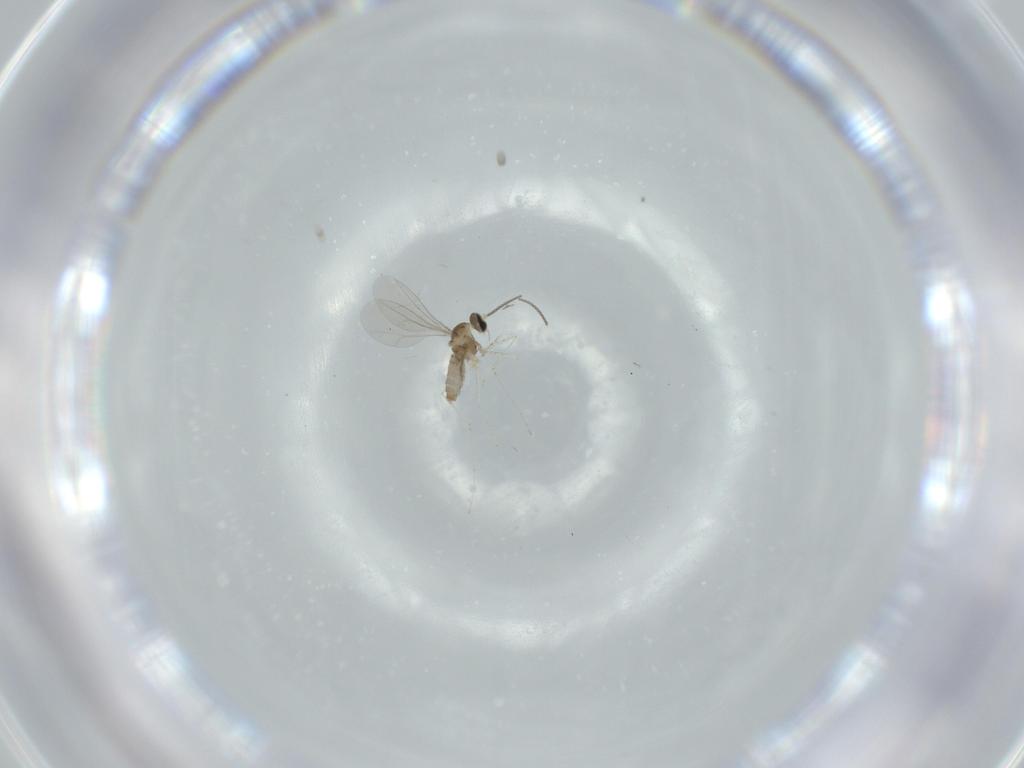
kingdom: Animalia
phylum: Arthropoda
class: Insecta
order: Diptera
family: Cecidomyiidae
